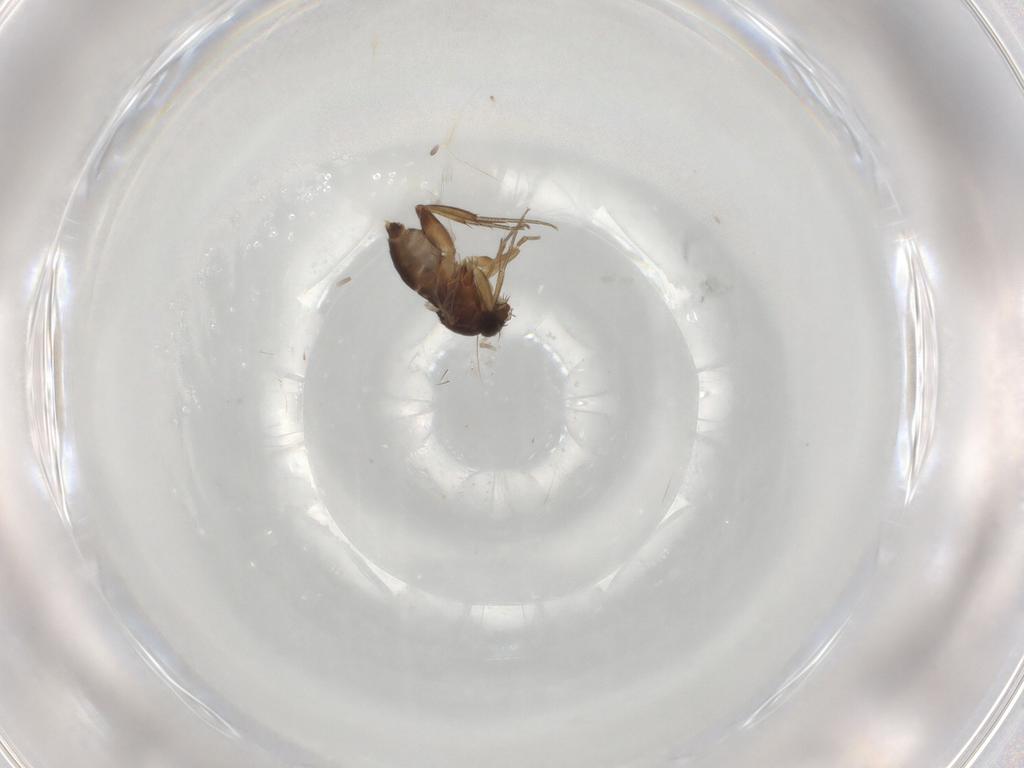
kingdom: Animalia
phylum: Arthropoda
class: Insecta
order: Diptera
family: Phoridae
